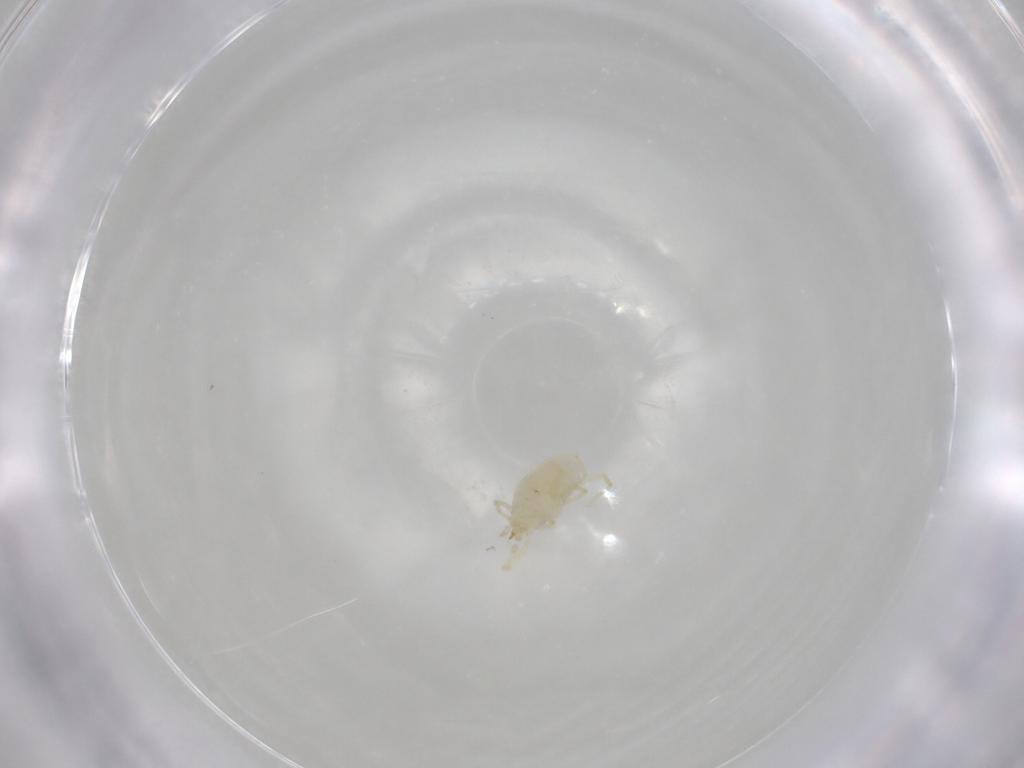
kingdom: Animalia
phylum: Arthropoda
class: Arachnida
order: Trombidiformes
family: Erythraeidae
